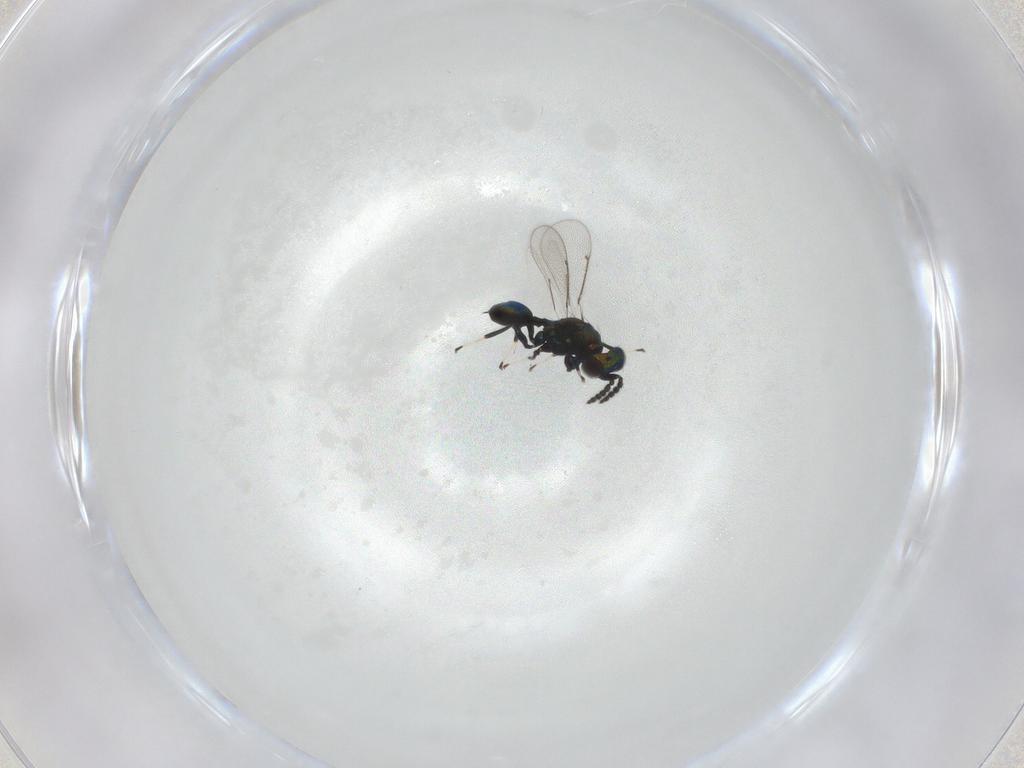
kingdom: Animalia
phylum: Arthropoda
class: Insecta
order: Hymenoptera
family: Eulophidae
